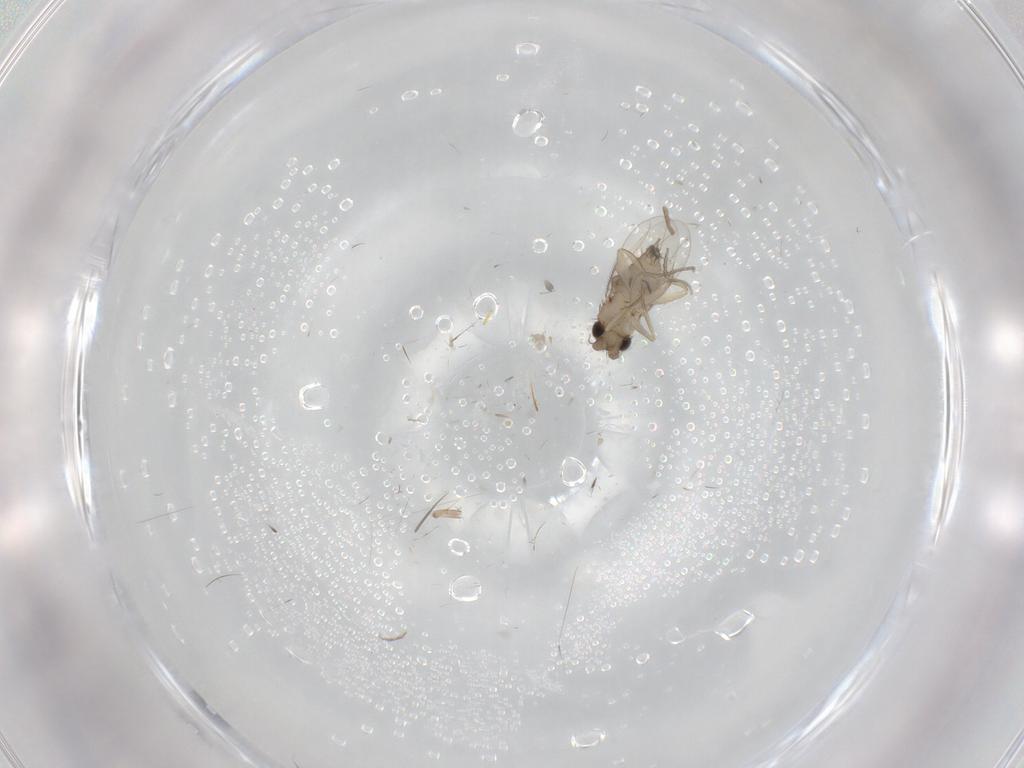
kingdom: Animalia
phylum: Arthropoda
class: Insecta
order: Diptera
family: Phoridae
